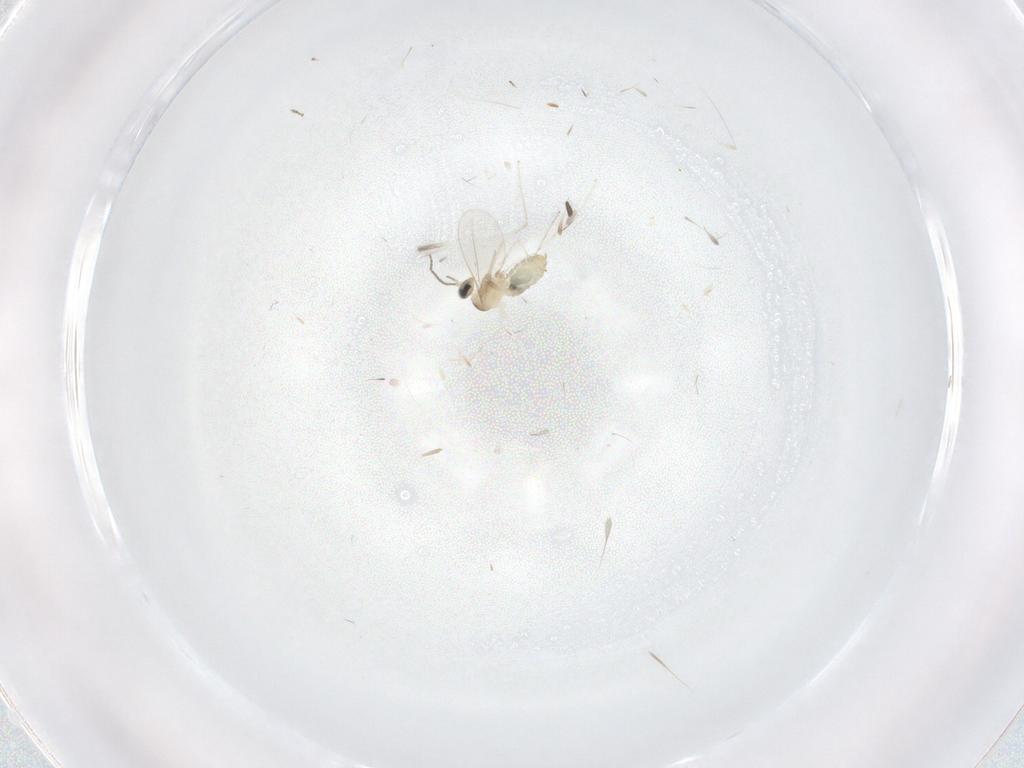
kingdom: Animalia
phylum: Arthropoda
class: Insecta
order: Diptera
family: Cecidomyiidae
